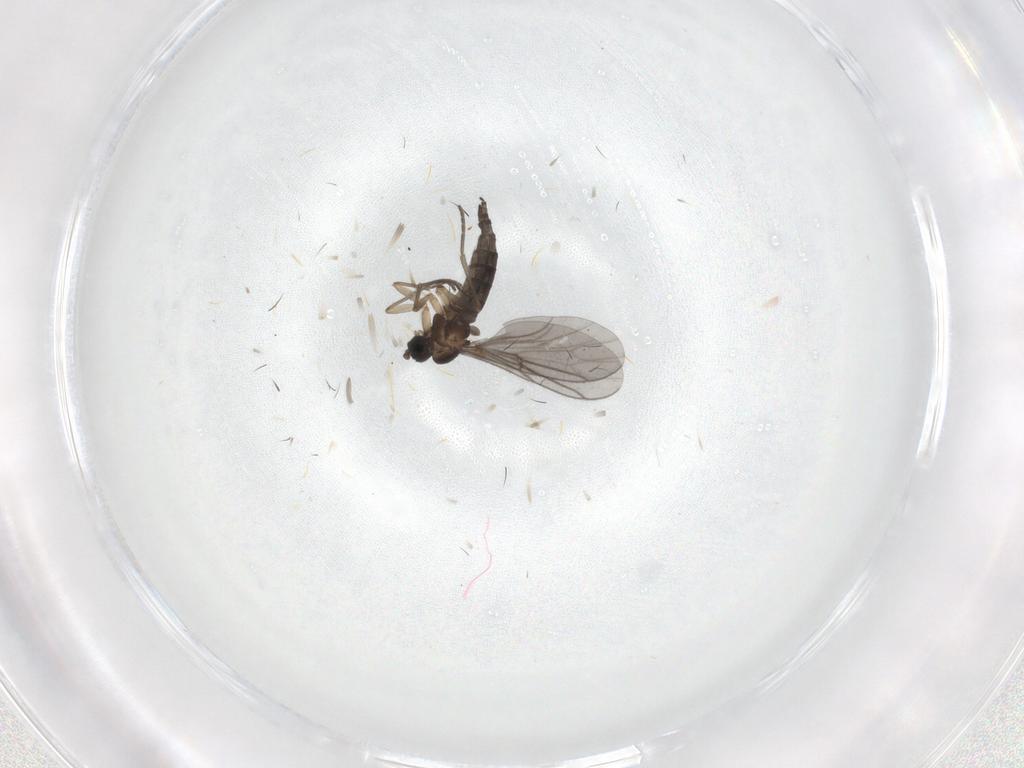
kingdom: Animalia
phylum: Arthropoda
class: Insecta
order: Diptera
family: Sciaridae
